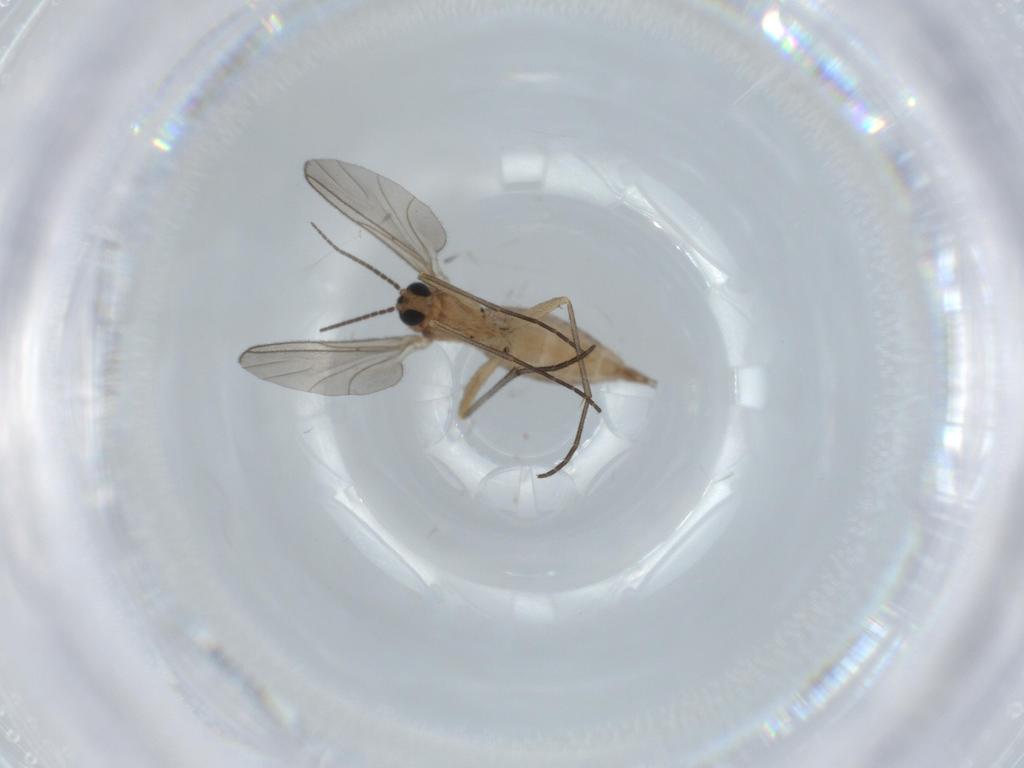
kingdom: Animalia
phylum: Arthropoda
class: Insecta
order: Diptera
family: Sciaridae
